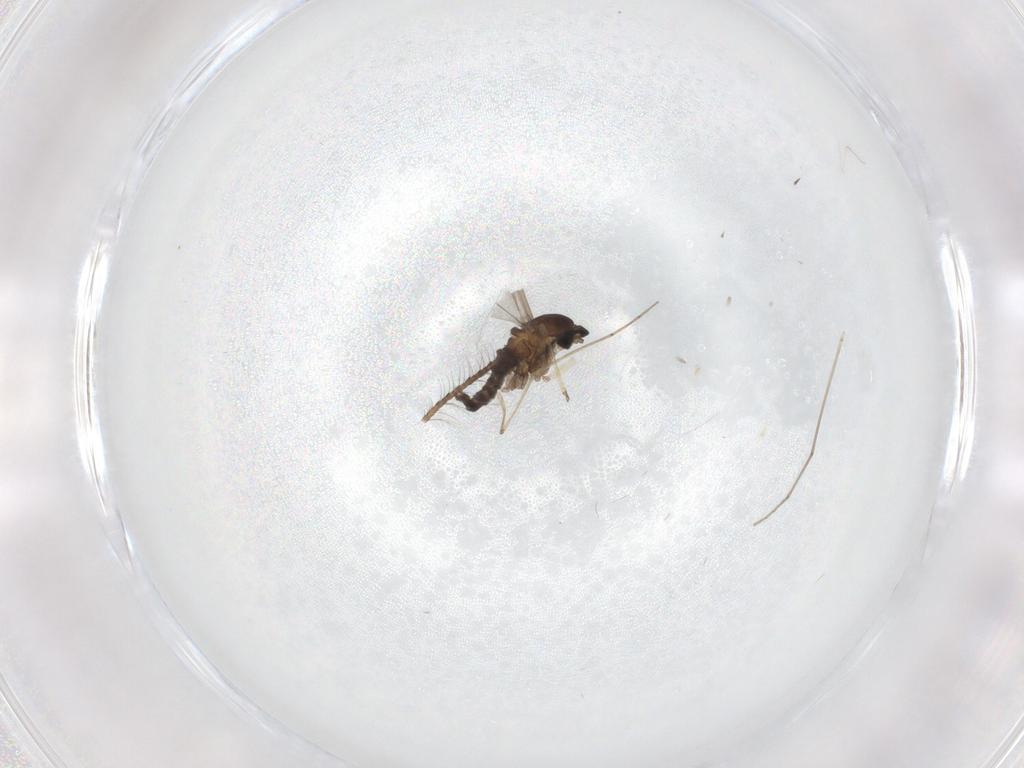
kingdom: Animalia
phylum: Arthropoda
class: Insecta
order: Diptera
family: Cecidomyiidae
